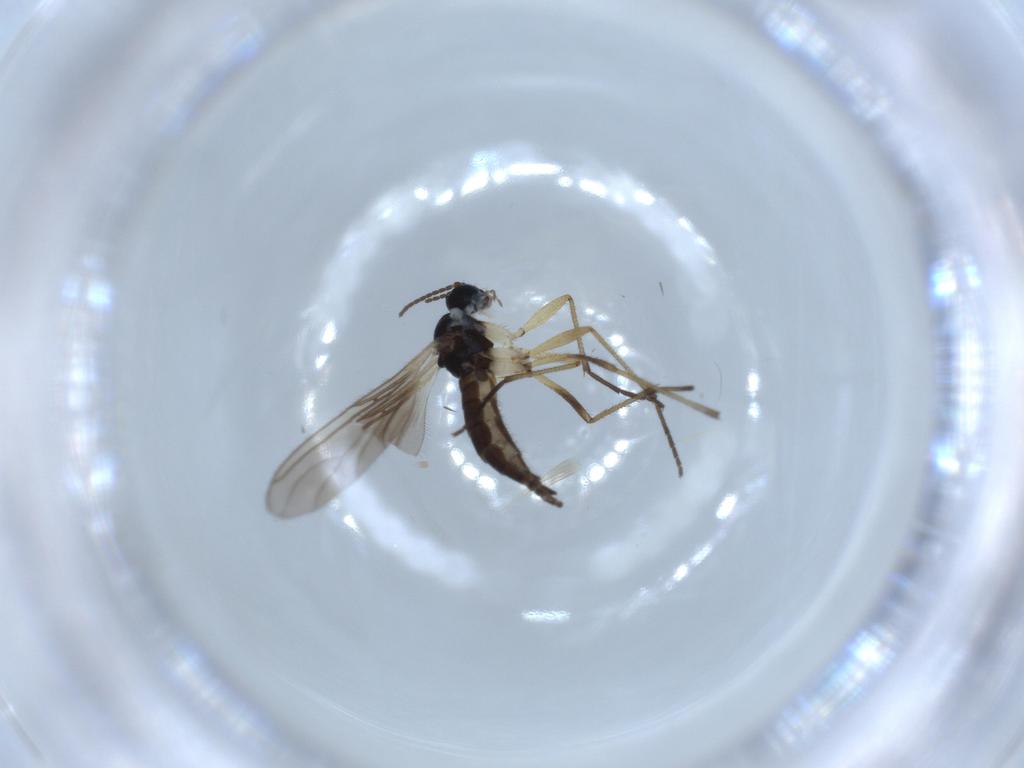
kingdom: Animalia
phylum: Arthropoda
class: Insecta
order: Diptera
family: Sciaridae
